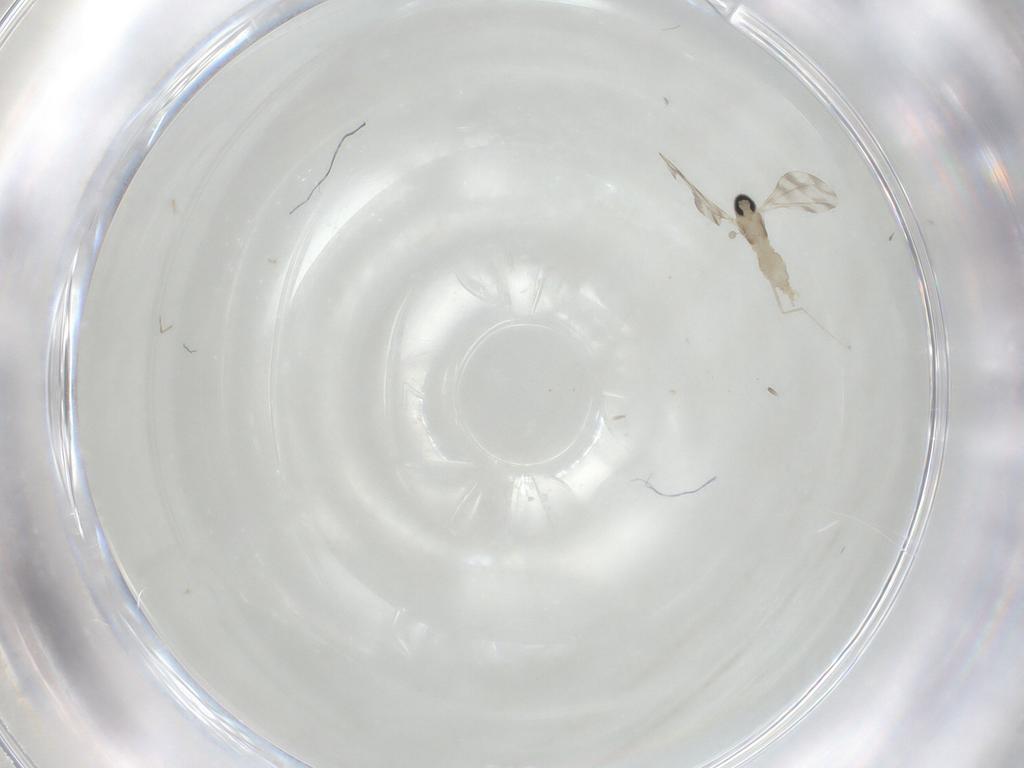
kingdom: Animalia
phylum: Arthropoda
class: Insecta
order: Diptera
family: Cecidomyiidae
